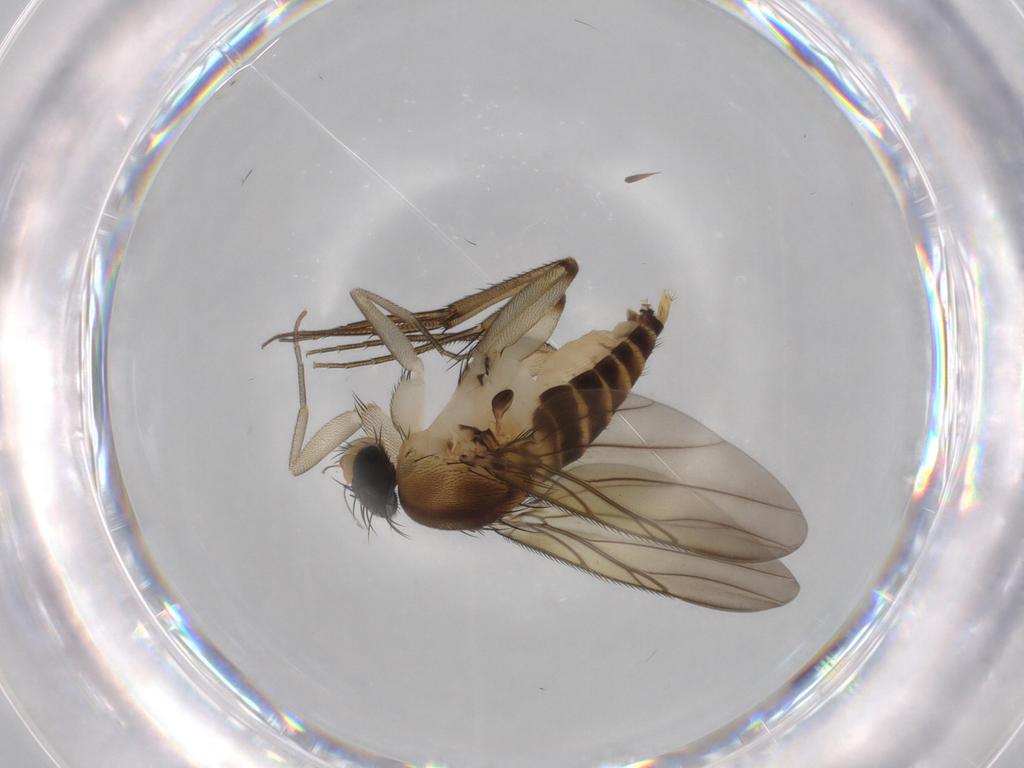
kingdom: Animalia
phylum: Arthropoda
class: Insecta
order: Diptera
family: Phoridae
